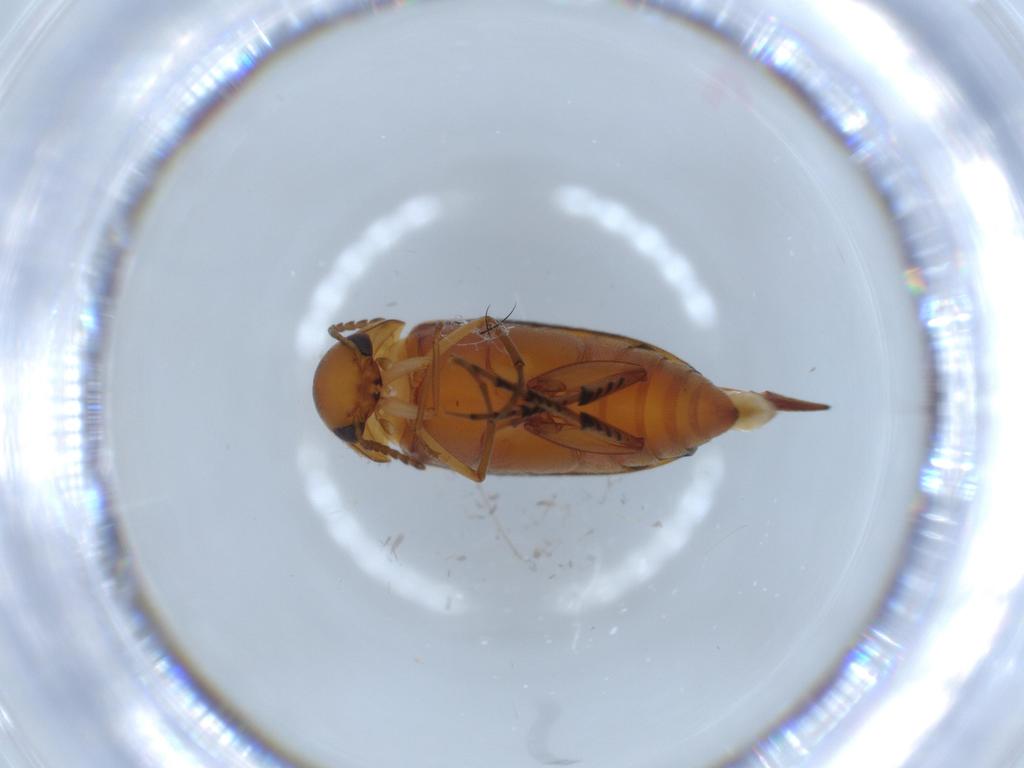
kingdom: Animalia
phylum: Arthropoda
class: Insecta
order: Coleoptera
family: Mordellidae
